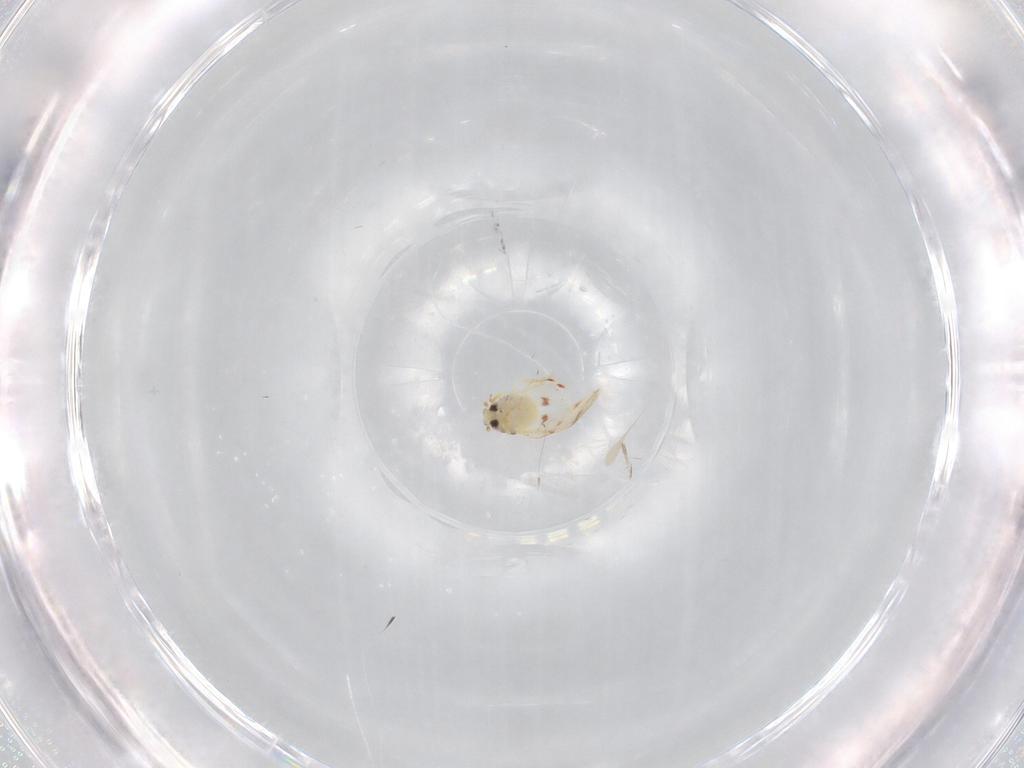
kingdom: Animalia
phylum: Arthropoda
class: Insecta
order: Hemiptera
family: Aleyrodidae
